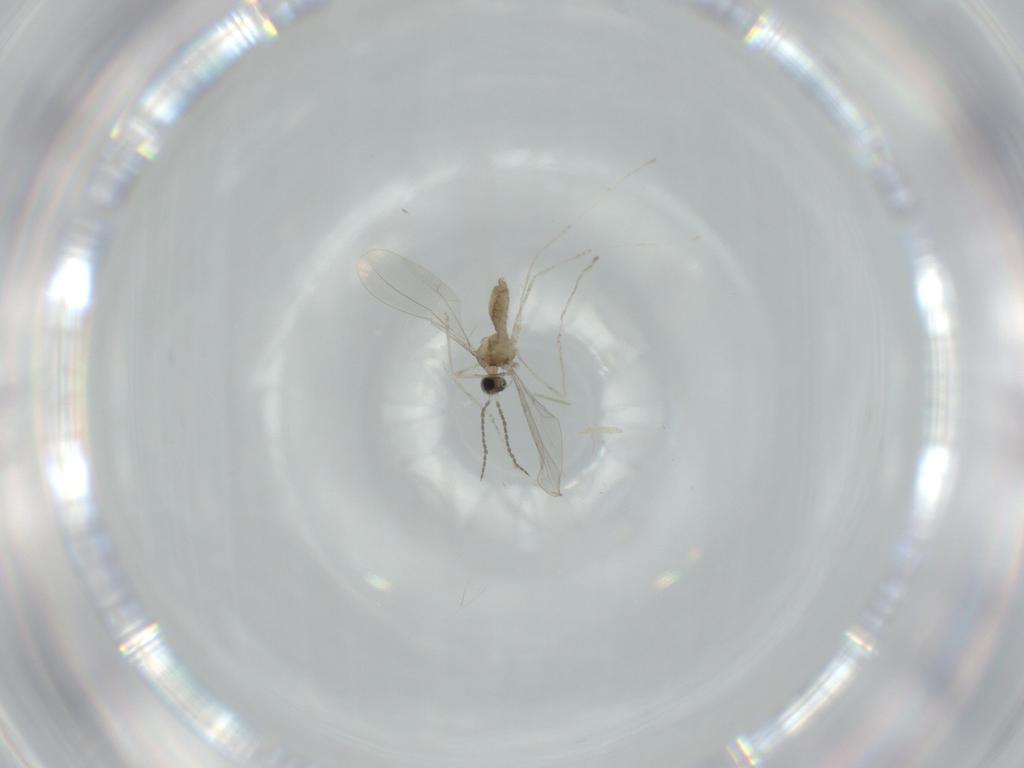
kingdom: Animalia
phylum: Arthropoda
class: Insecta
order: Diptera
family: Cecidomyiidae
